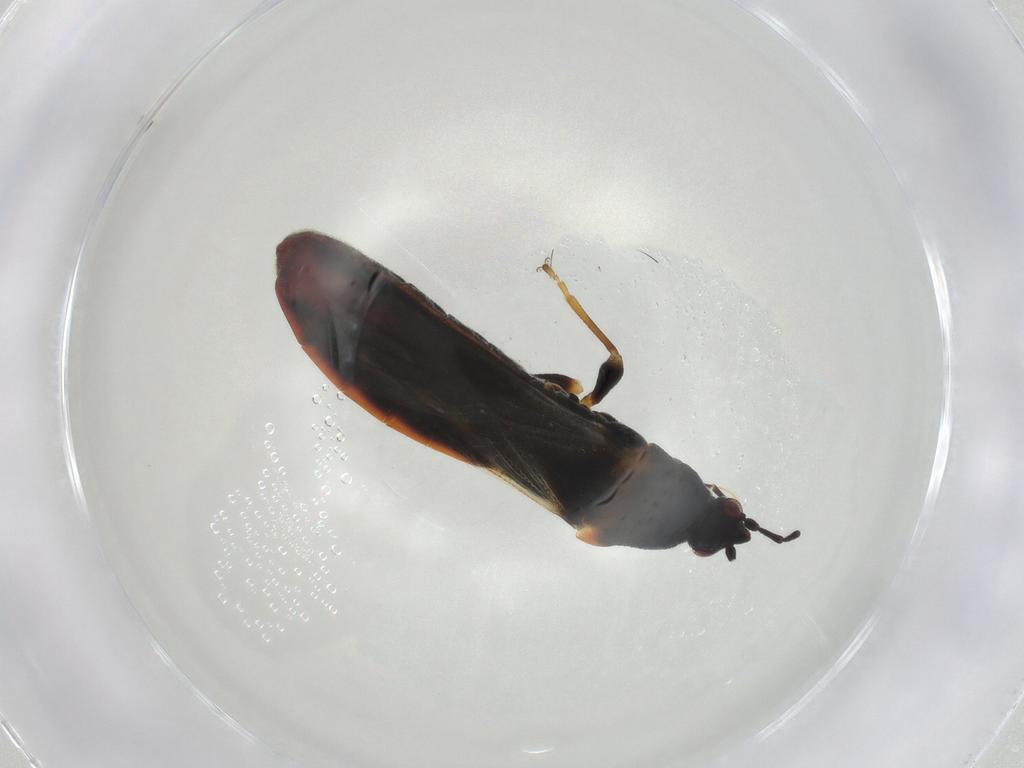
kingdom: Animalia
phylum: Arthropoda
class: Insecta
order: Hemiptera
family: Blissidae
